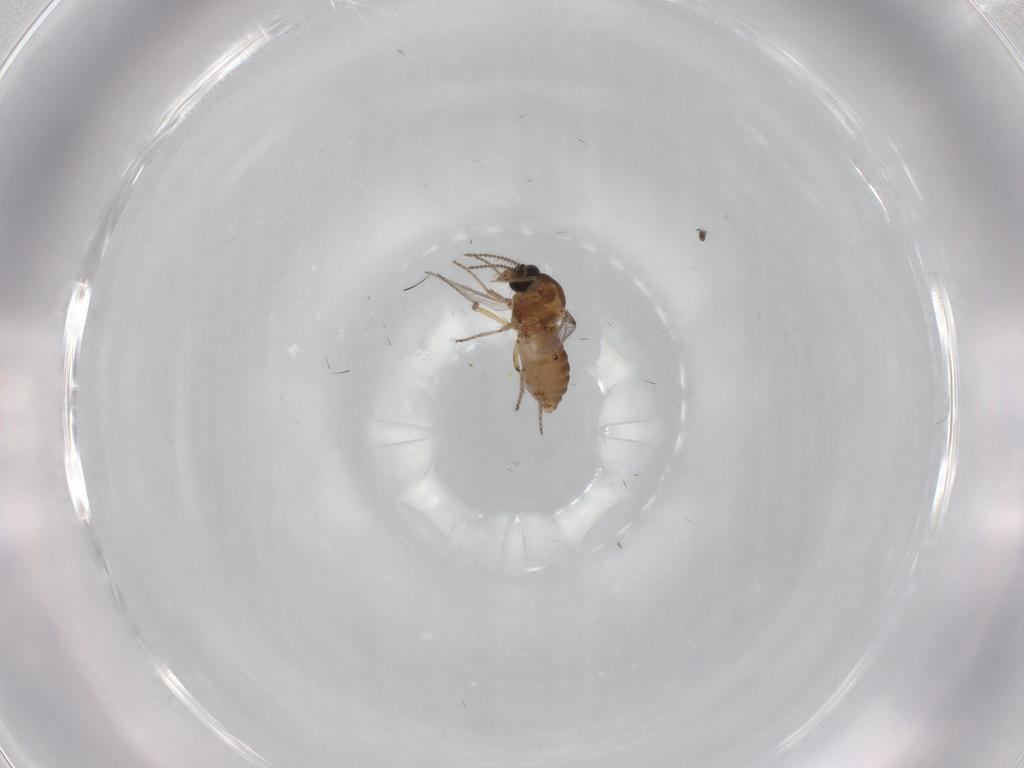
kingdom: Animalia
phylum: Arthropoda
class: Insecta
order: Diptera
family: Ceratopogonidae
